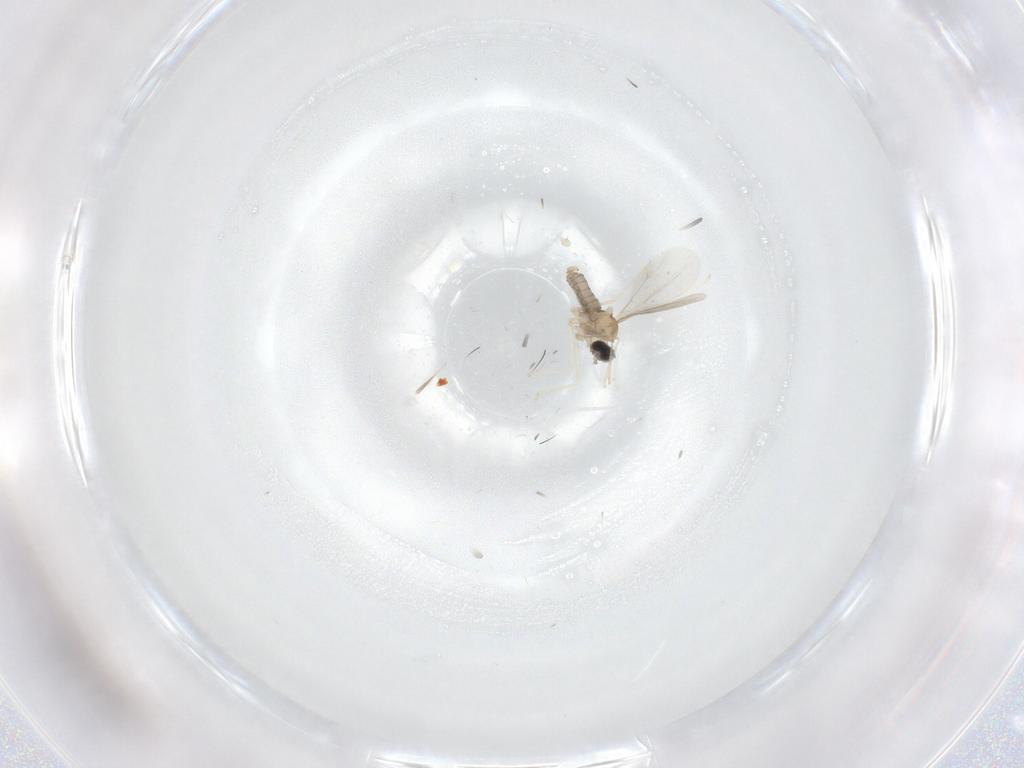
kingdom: Animalia
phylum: Arthropoda
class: Insecta
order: Diptera
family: Cecidomyiidae
